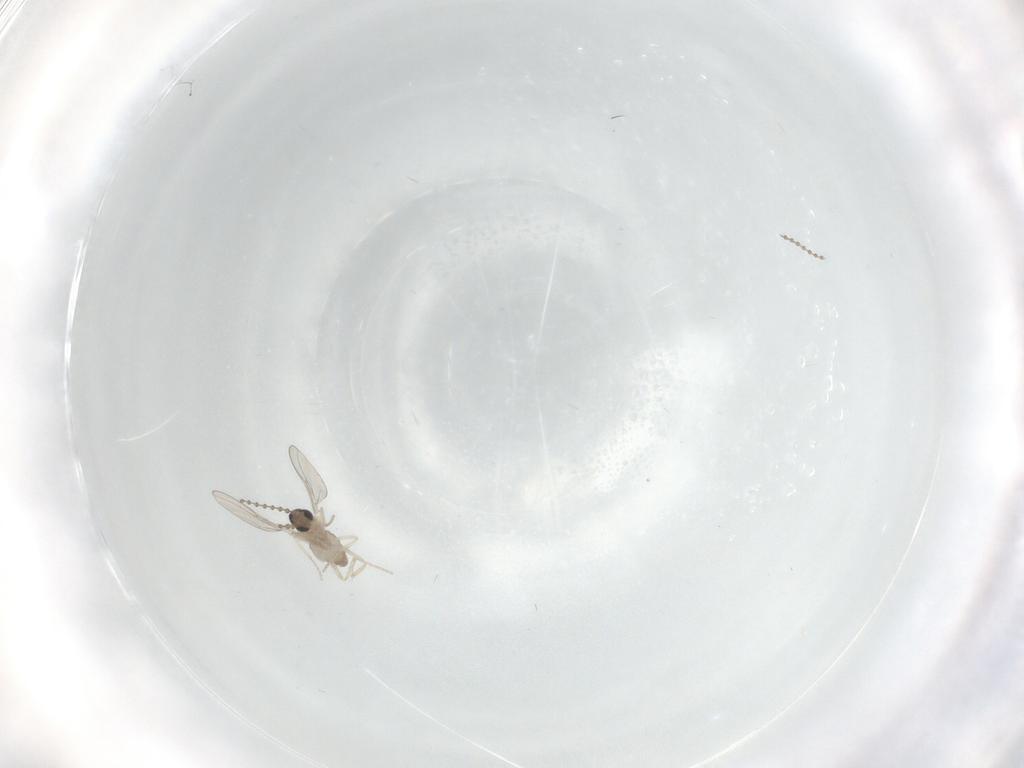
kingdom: Animalia
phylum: Arthropoda
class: Insecta
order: Diptera
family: Cecidomyiidae
